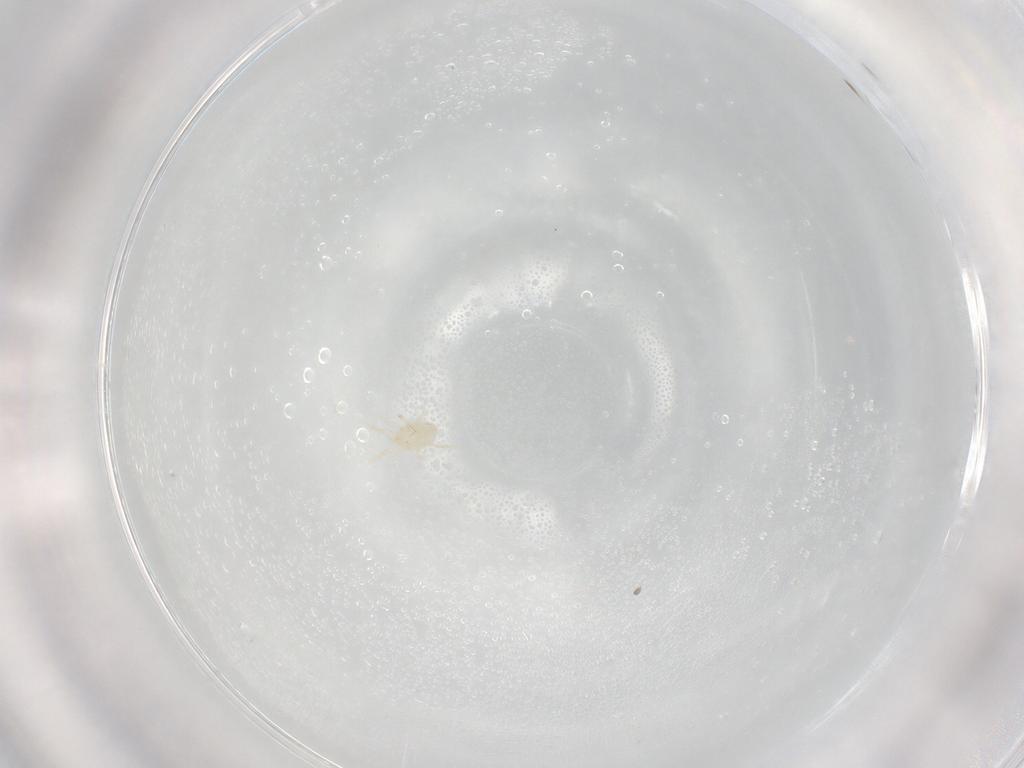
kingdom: Animalia
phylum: Arthropoda
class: Arachnida
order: Mesostigmata
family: Phytoseiidae
